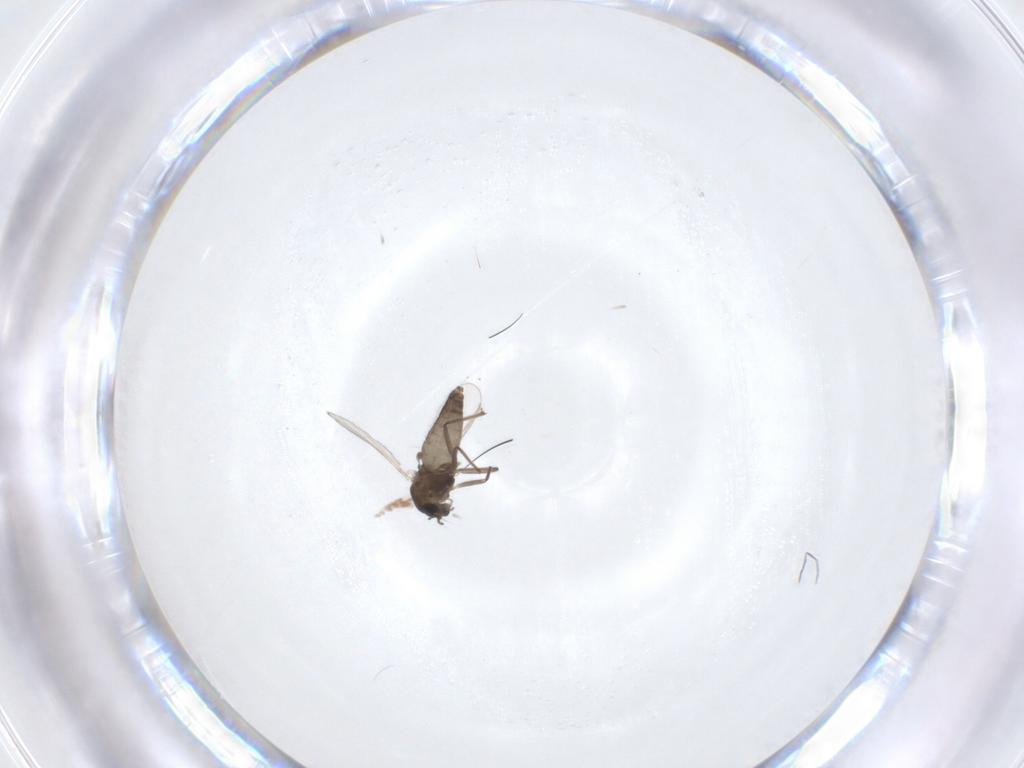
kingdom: Animalia
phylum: Arthropoda
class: Insecta
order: Diptera
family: Chironomidae
